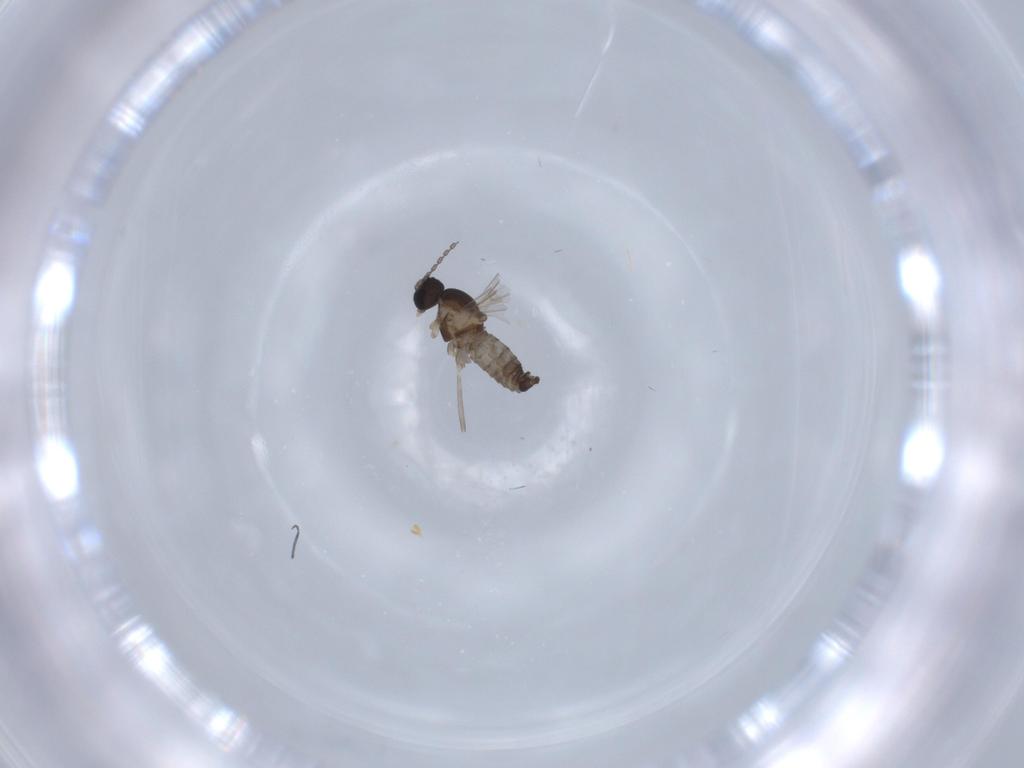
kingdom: Animalia
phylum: Arthropoda
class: Insecta
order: Diptera
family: Cecidomyiidae
